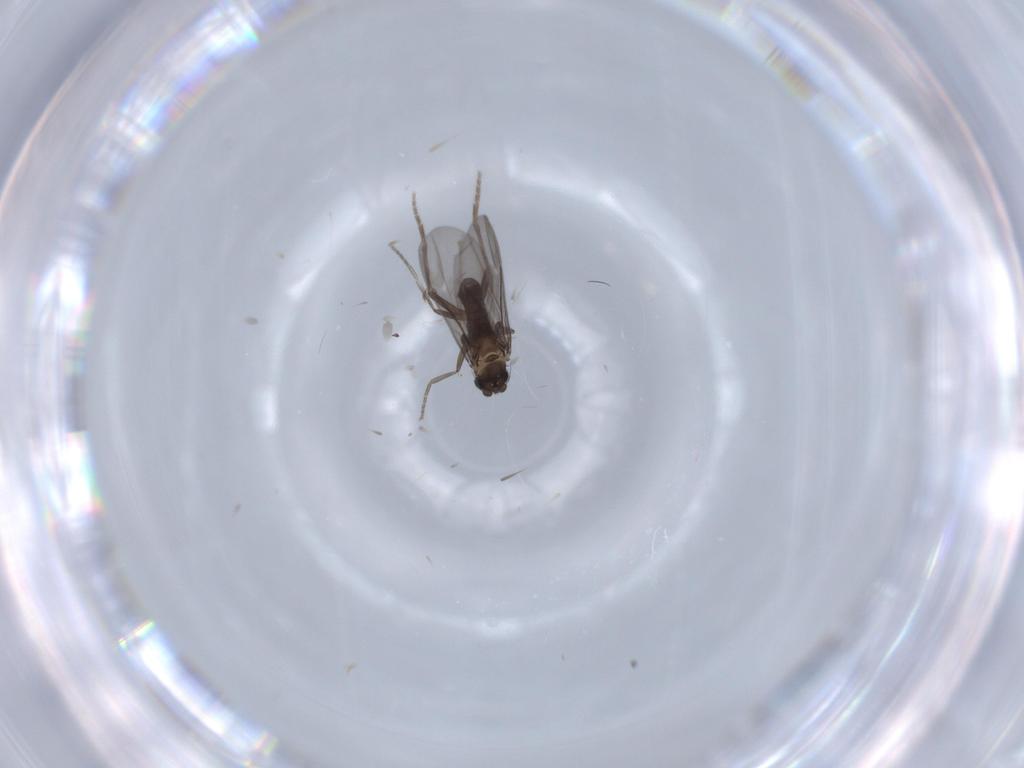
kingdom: Animalia
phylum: Arthropoda
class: Insecta
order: Diptera
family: Phoridae
